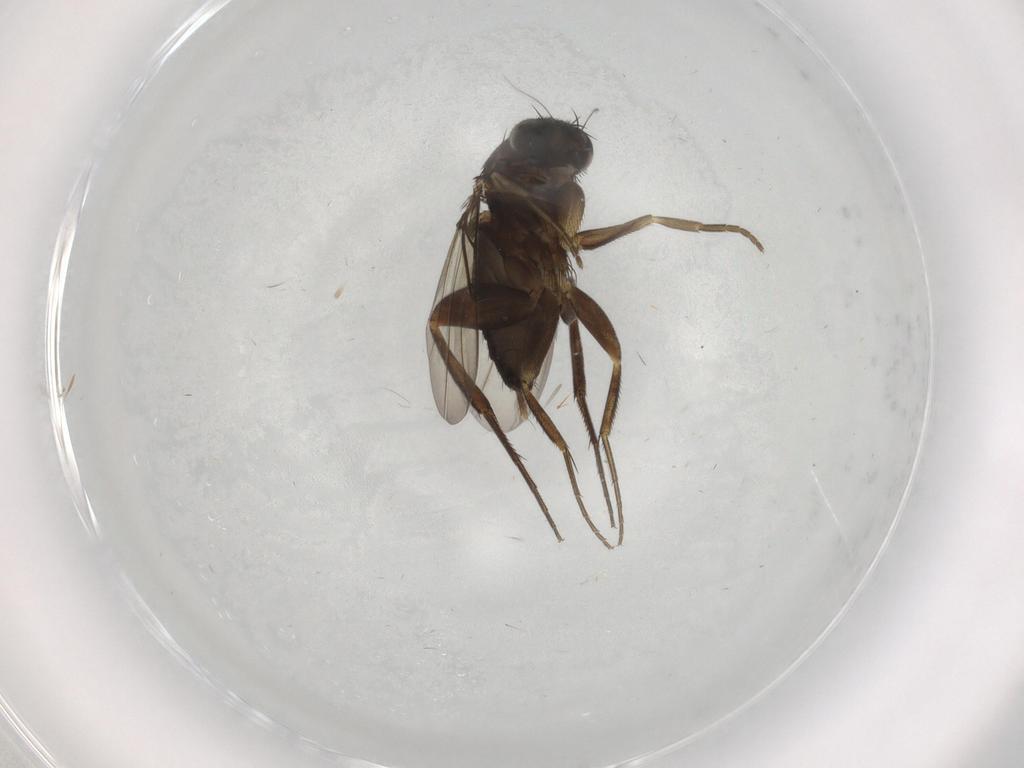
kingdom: Animalia
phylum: Arthropoda
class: Insecta
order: Diptera
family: Phoridae
